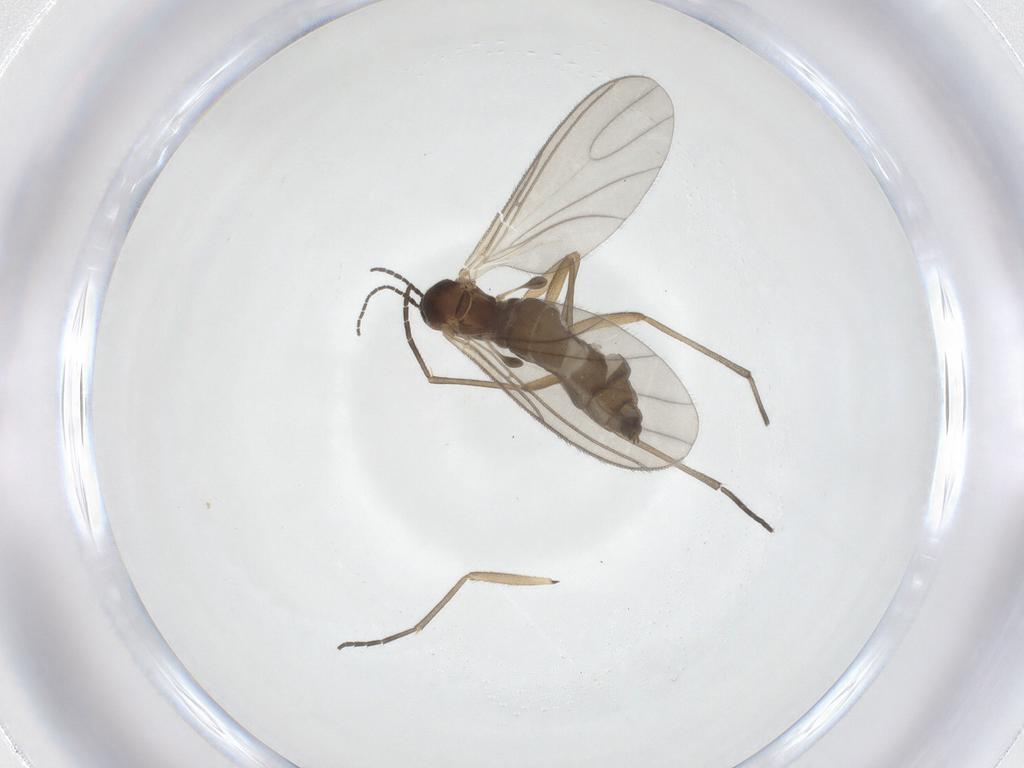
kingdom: Animalia
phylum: Arthropoda
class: Insecta
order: Diptera
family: Sciaridae
